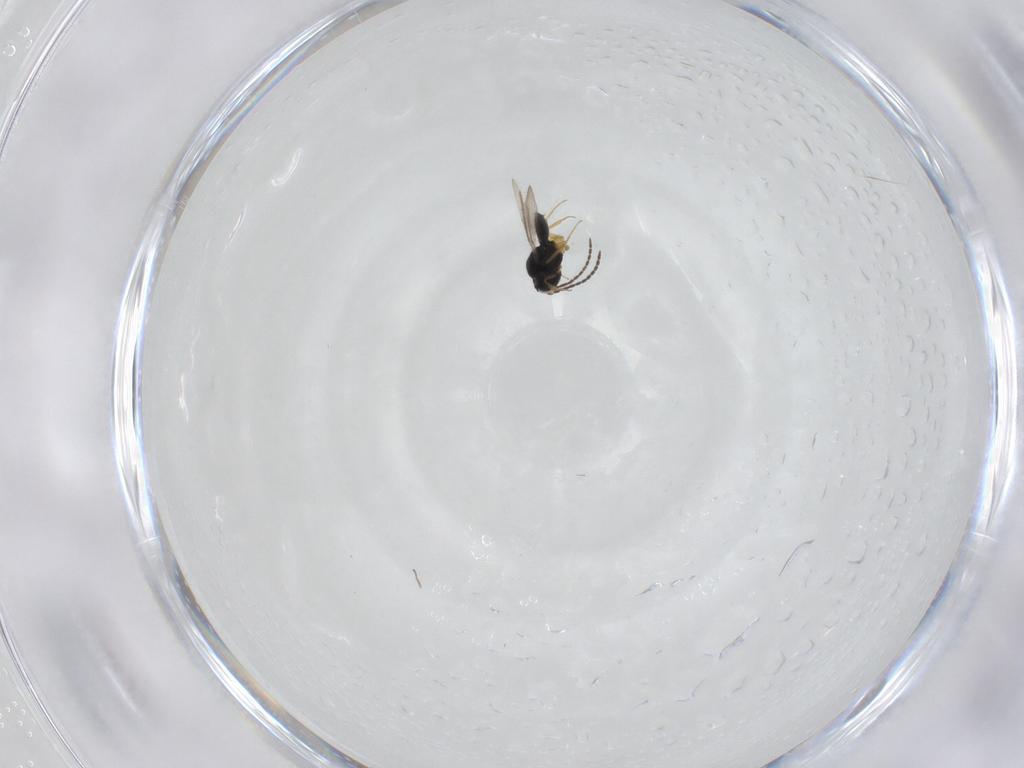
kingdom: Animalia
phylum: Arthropoda
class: Insecta
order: Hymenoptera
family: Scelionidae
